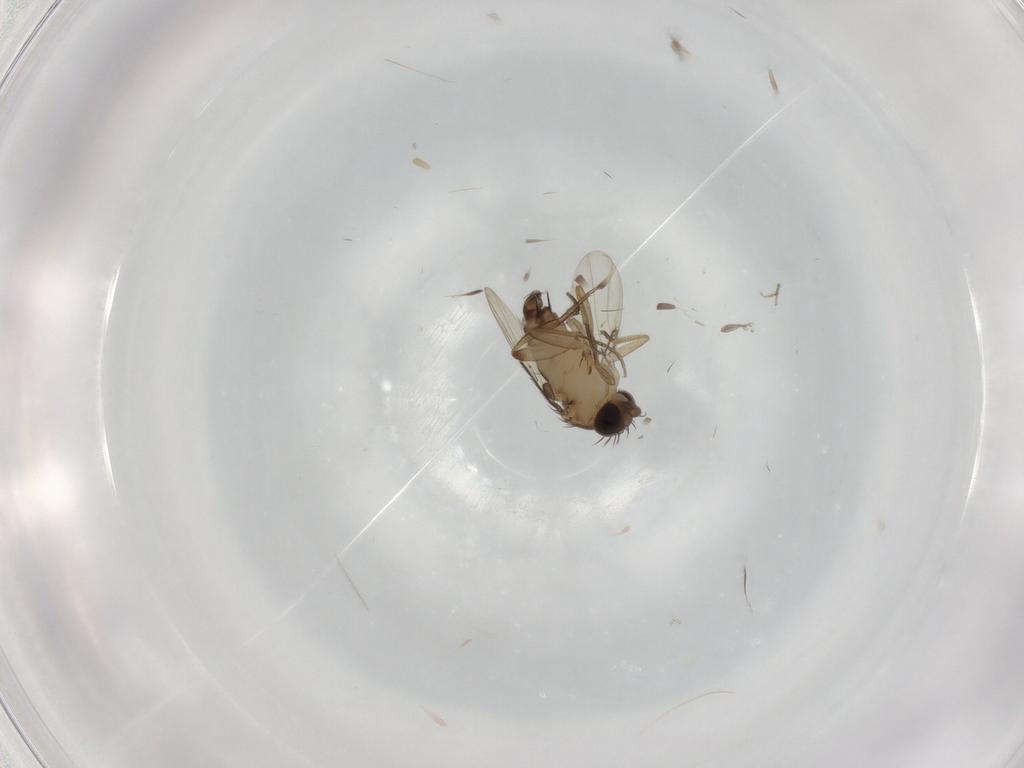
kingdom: Animalia
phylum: Arthropoda
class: Insecta
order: Diptera
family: Phoridae
